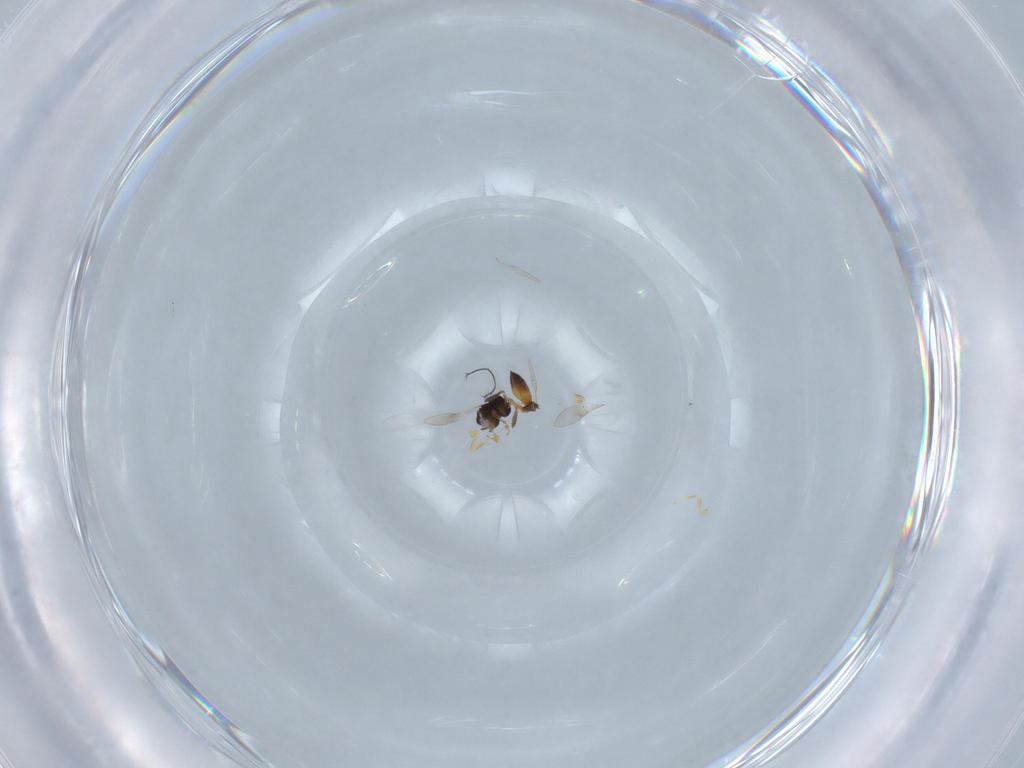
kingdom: Animalia
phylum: Arthropoda
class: Insecta
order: Hymenoptera
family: Scelionidae
